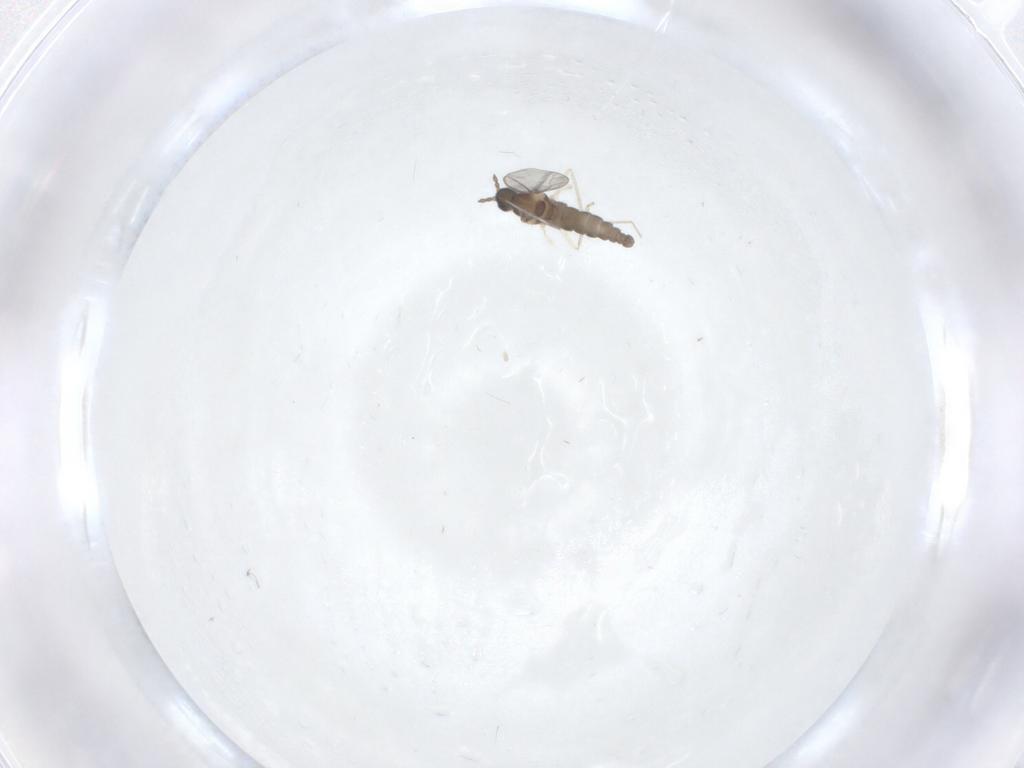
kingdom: Animalia
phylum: Arthropoda
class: Insecta
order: Diptera
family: Cecidomyiidae
